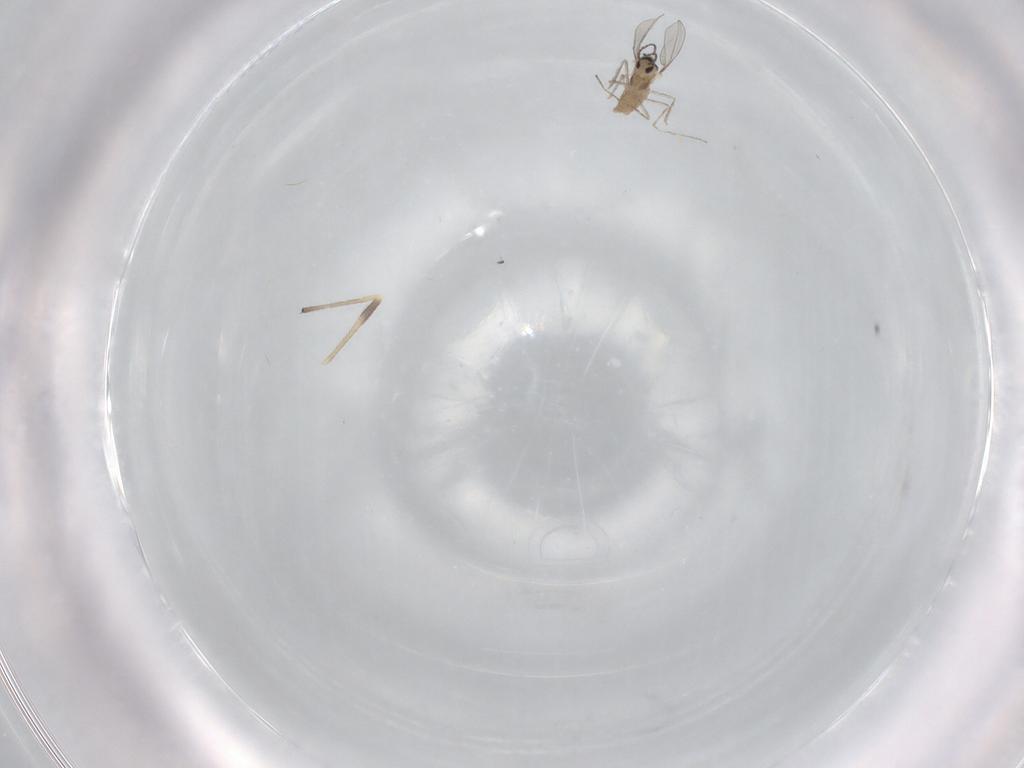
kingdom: Animalia
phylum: Arthropoda
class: Insecta
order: Diptera
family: Cecidomyiidae
